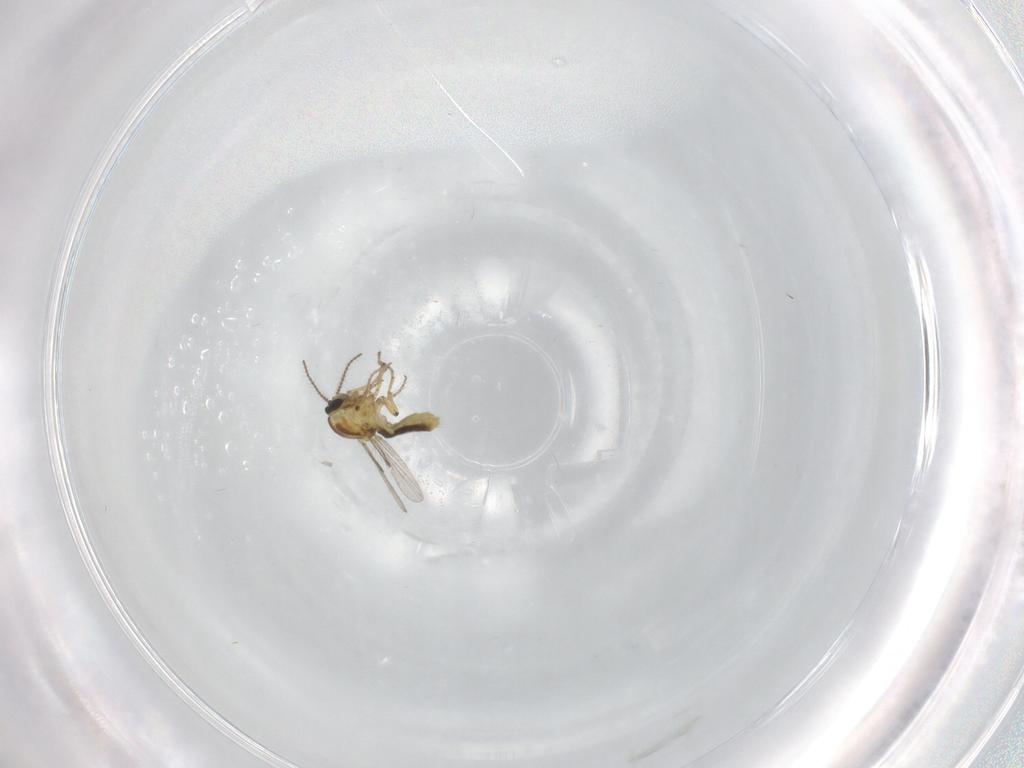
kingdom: Animalia
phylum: Arthropoda
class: Insecta
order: Diptera
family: Ceratopogonidae
